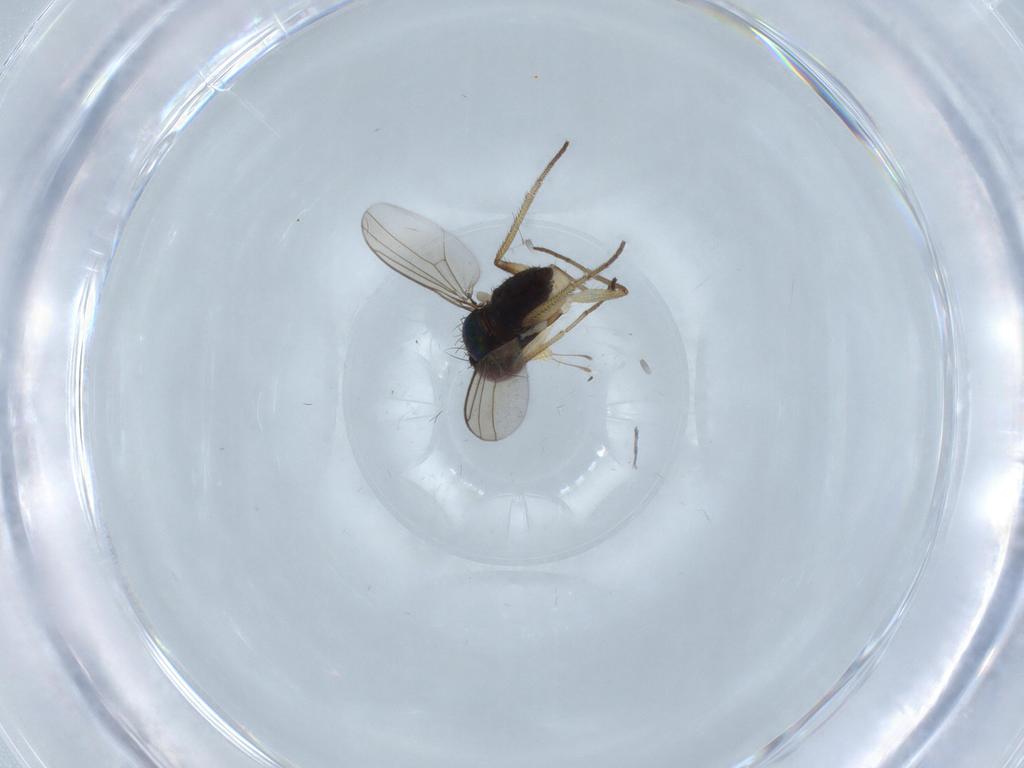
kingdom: Animalia
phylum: Arthropoda
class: Insecta
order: Diptera
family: Dolichopodidae
